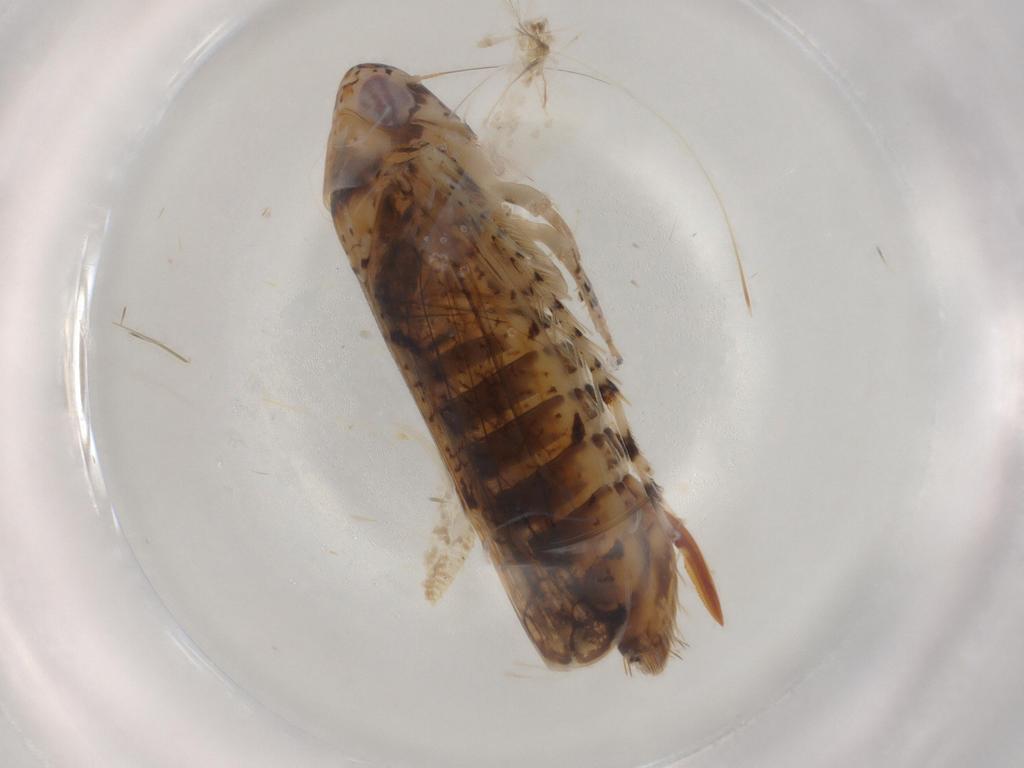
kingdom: Animalia
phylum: Arthropoda
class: Insecta
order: Hemiptera
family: Cicadellidae
